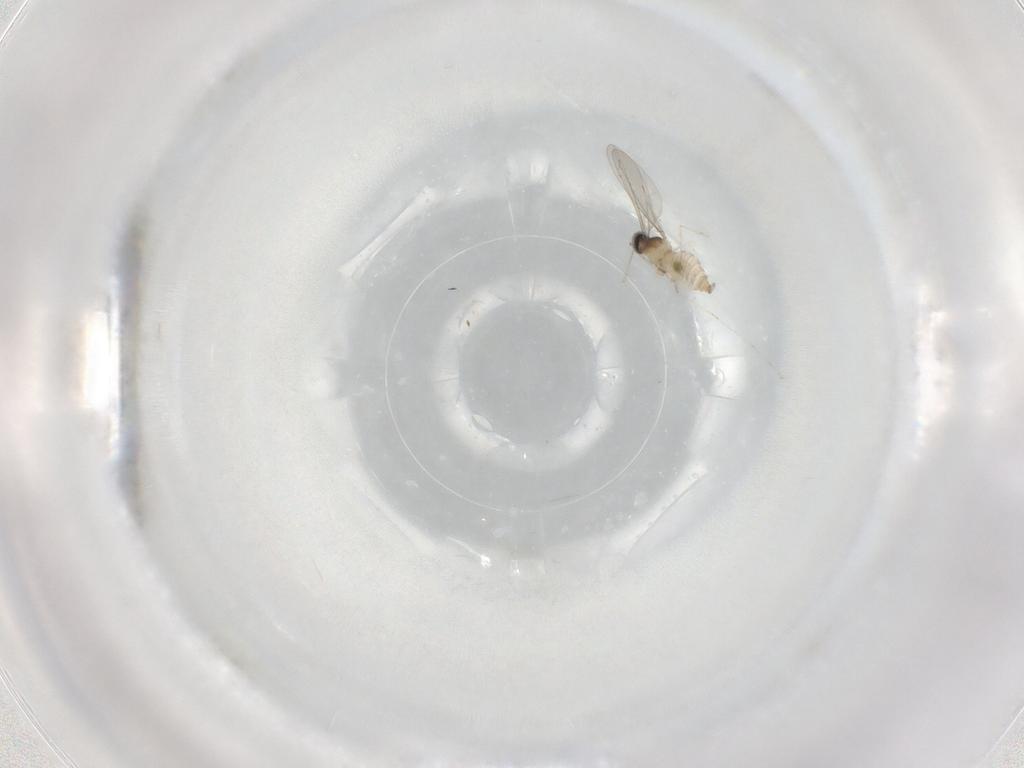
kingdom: Animalia
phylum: Arthropoda
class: Insecta
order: Diptera
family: Cecidomyiidae
